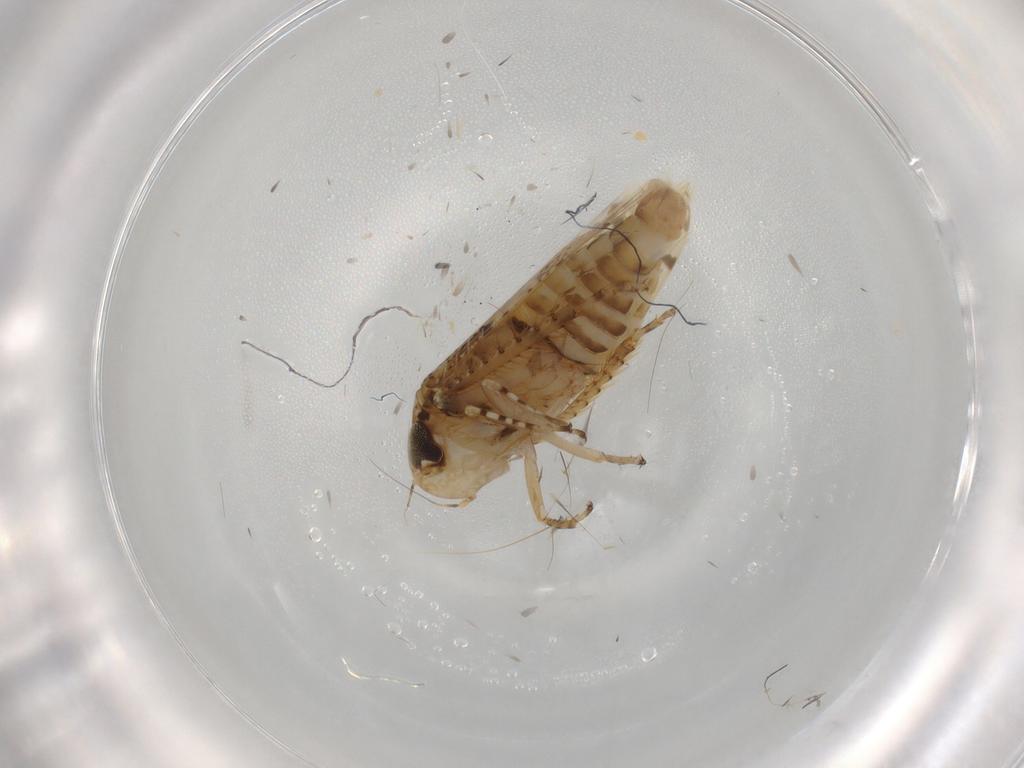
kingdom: Animalia
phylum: Arthropoda
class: Insecta
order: Hemiptera
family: Cicadellidae
